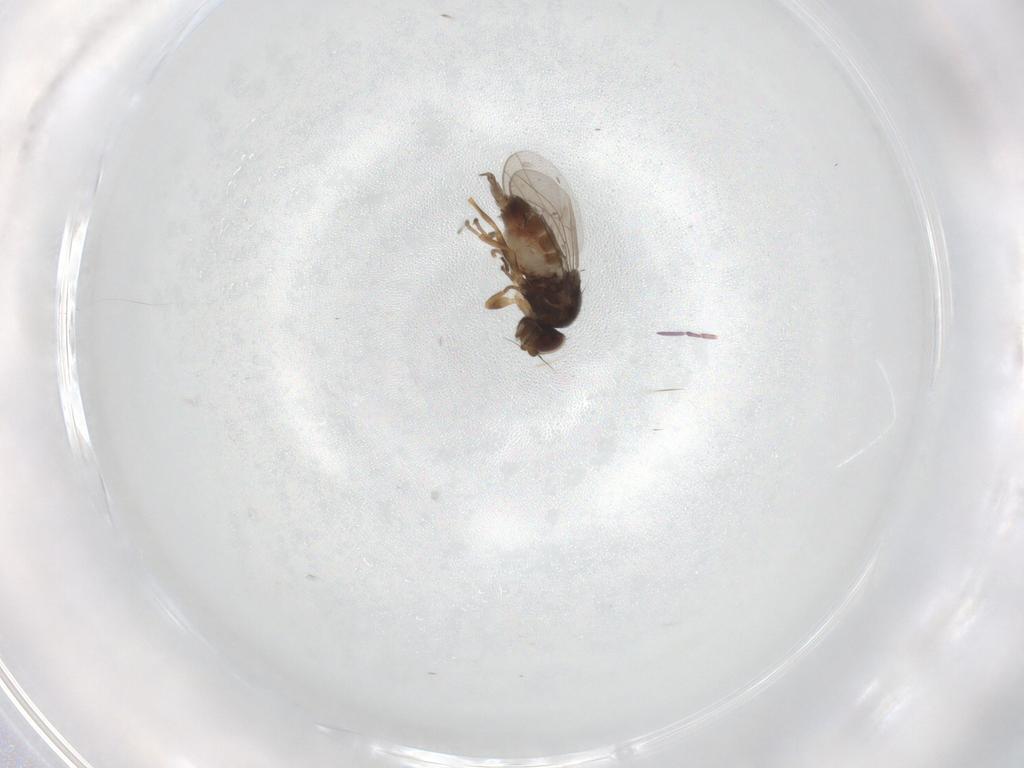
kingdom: Animalia
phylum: Arthropoda
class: Insecta
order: Diptera
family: Chloropidae
